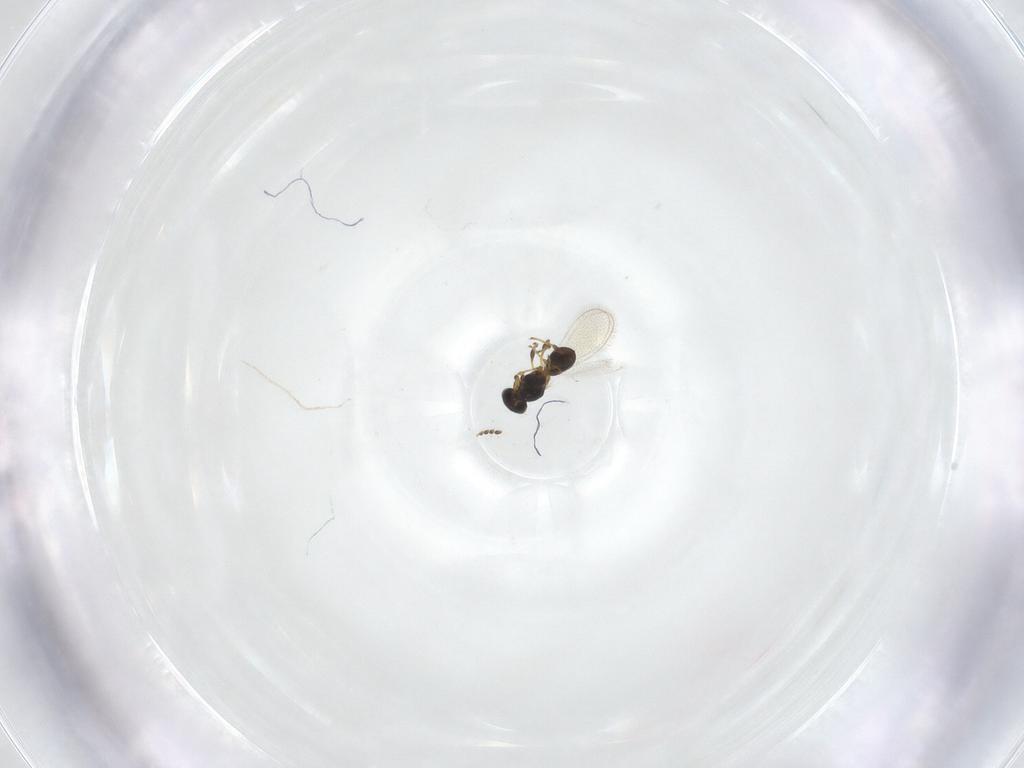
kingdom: Animalia
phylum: Arthropoda
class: Insecta
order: Hymenoptera
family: Platygastridae
